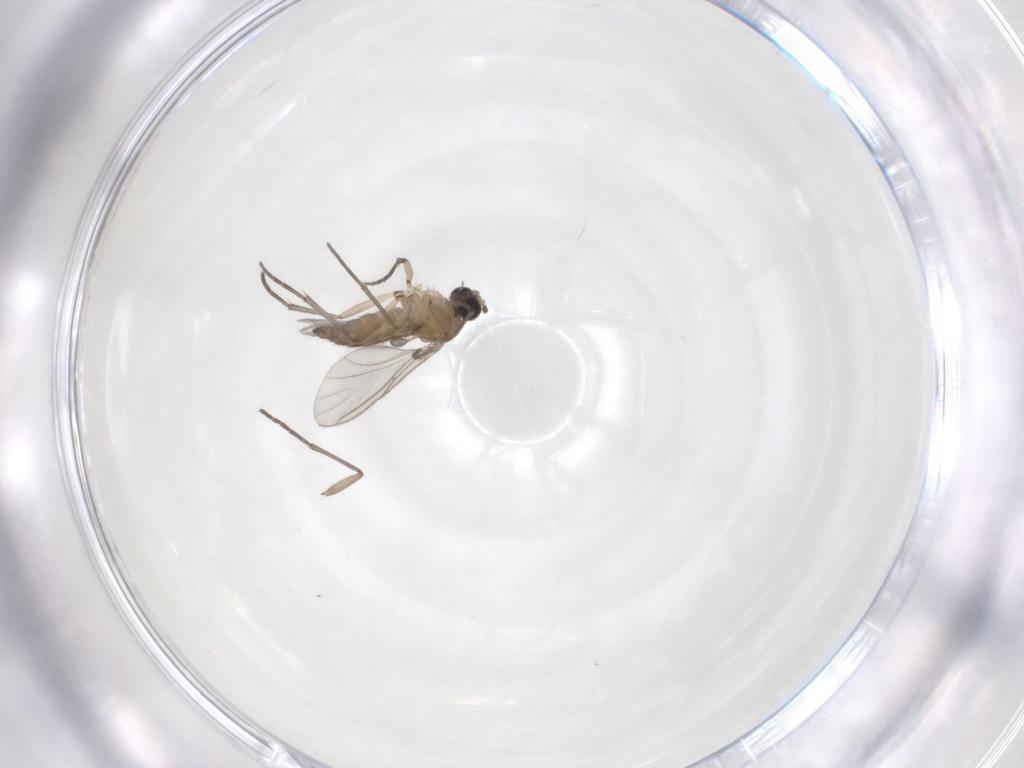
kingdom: Animalia
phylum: Arthropoda
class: Insecta
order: Diptera
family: Sciaridae
